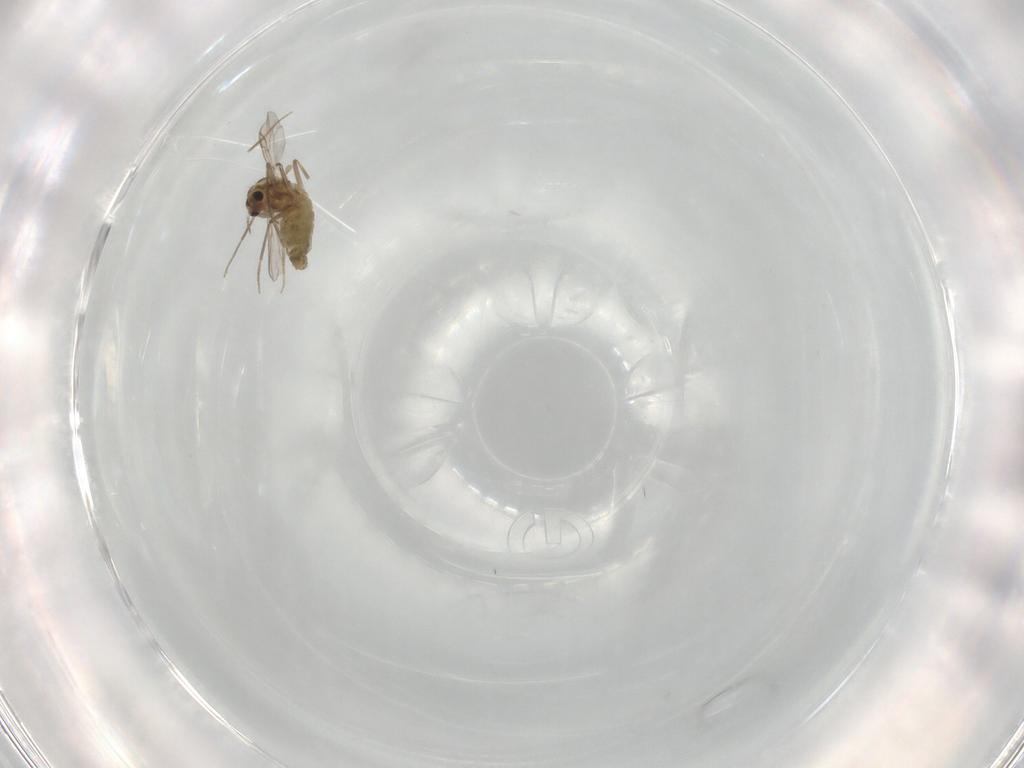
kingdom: Animalia
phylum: Arthropoda
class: Insecta
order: Diptera
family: Chironomidae
